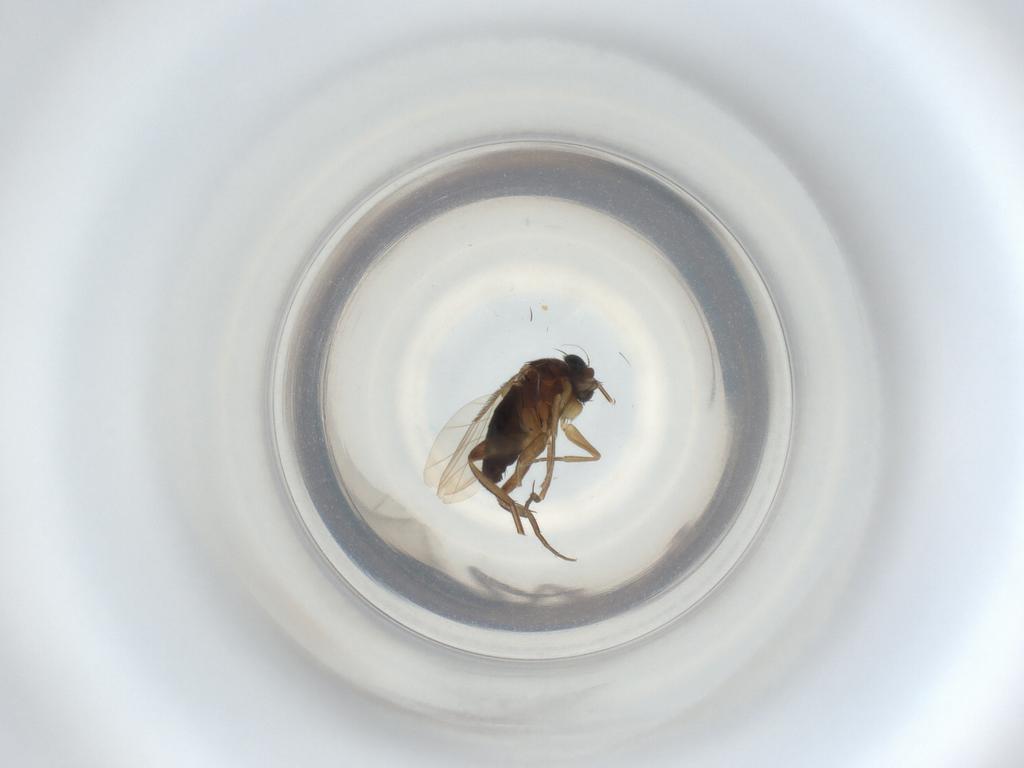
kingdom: Animalia
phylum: Arthropoda
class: Insecta
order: Diptera
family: Phoridae
